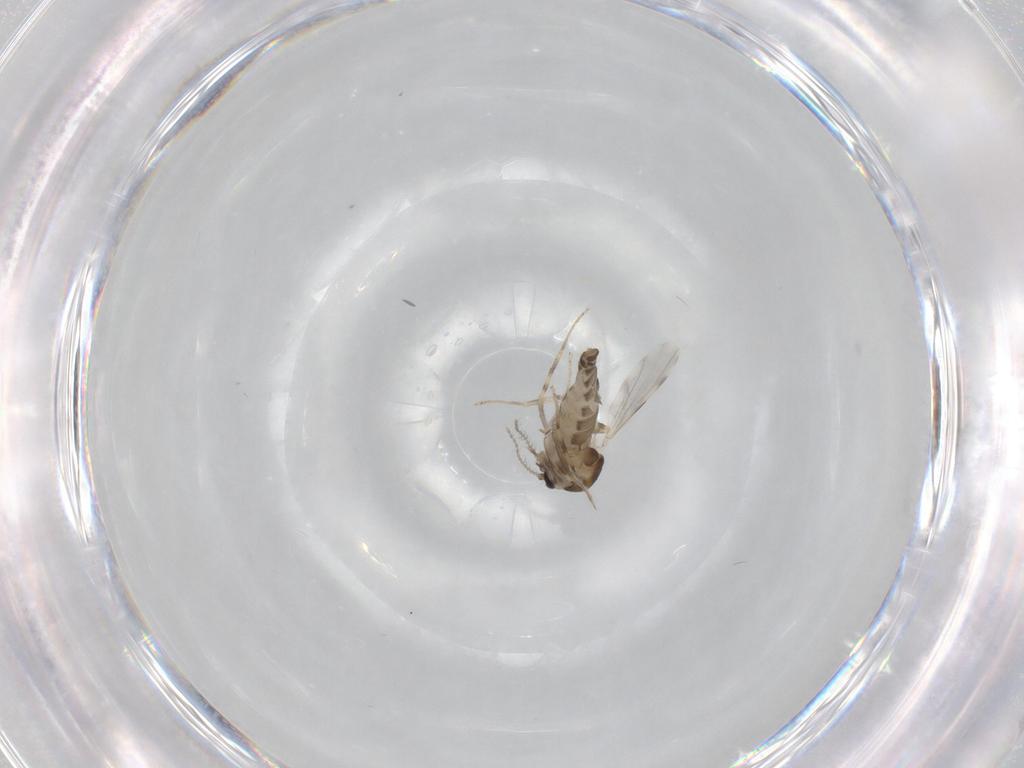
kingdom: Animalia
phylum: Arthropoda
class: Insecta
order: Diptera
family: Ceratopogonidae
